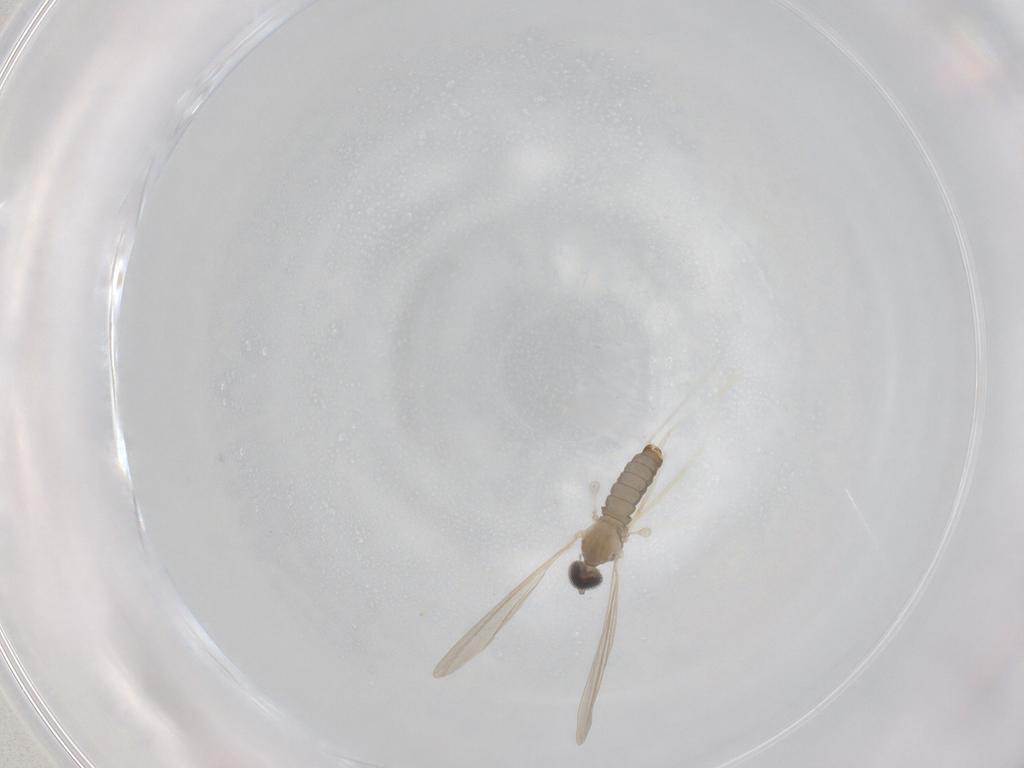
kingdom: Animalia
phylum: Arthropoda
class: Insecta
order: Diptera
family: Cecidomyiidae
